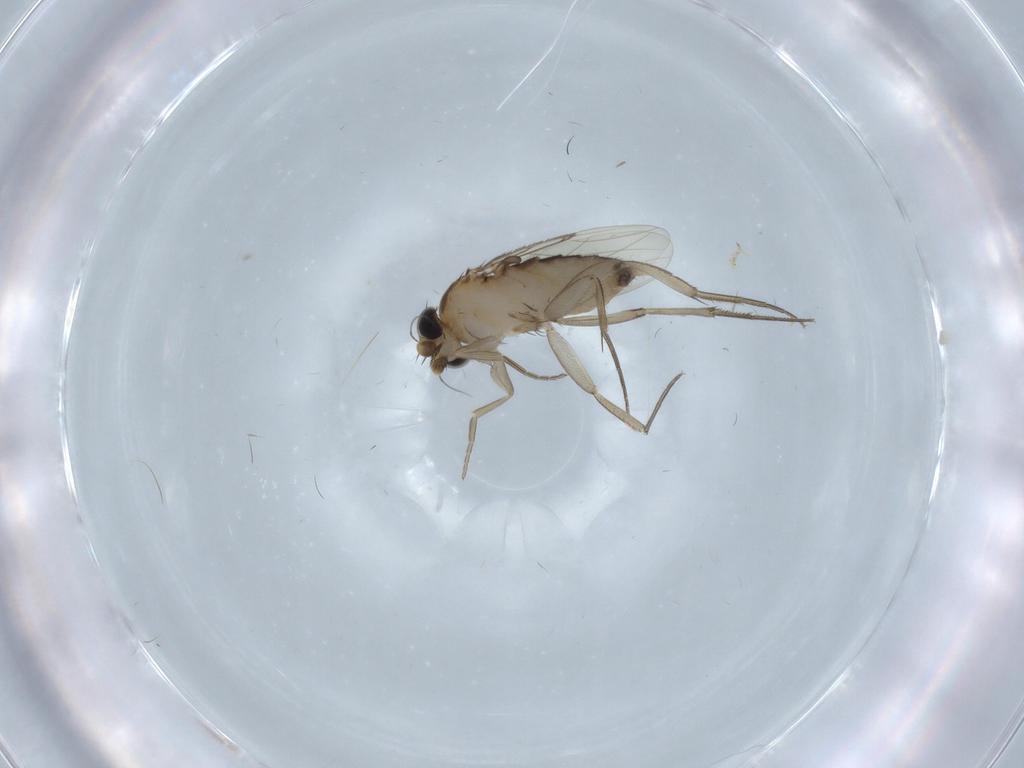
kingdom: Animalia
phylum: Arthropoda
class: Insecta
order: Diptera
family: Phoridae
